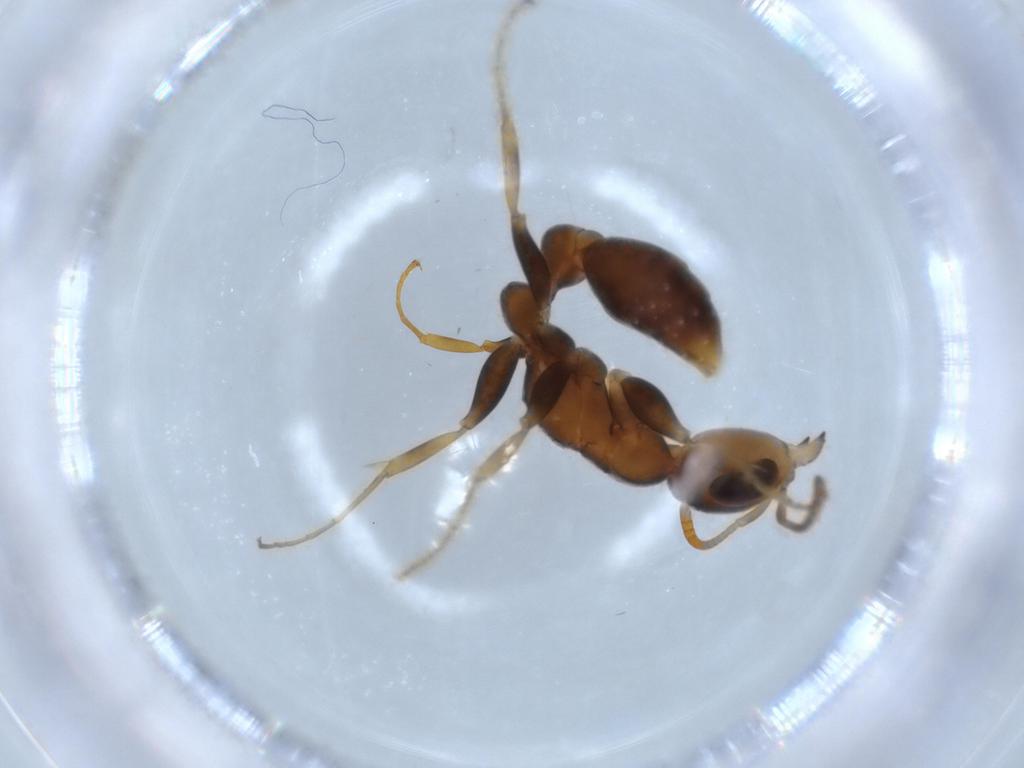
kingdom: Animalia
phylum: Arthropoda
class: Insecta
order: Hymenoptera
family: Formicidae
